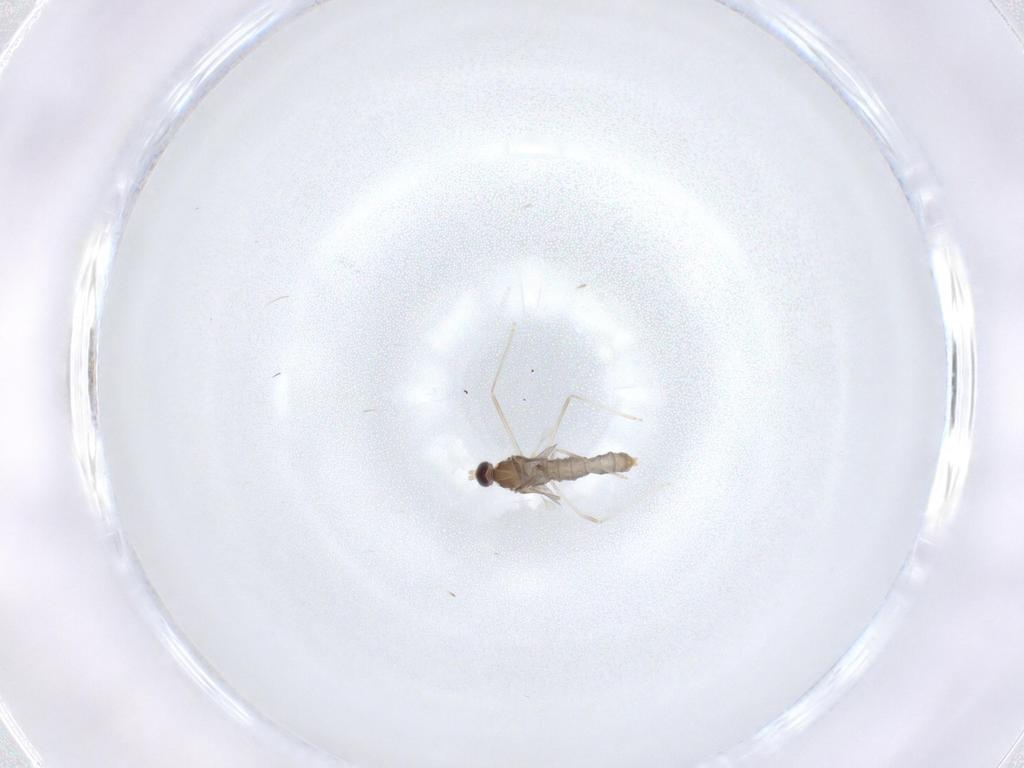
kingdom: Animalia
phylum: Arthropoda
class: Insecta
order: Diptera
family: Cecidomyiidae
